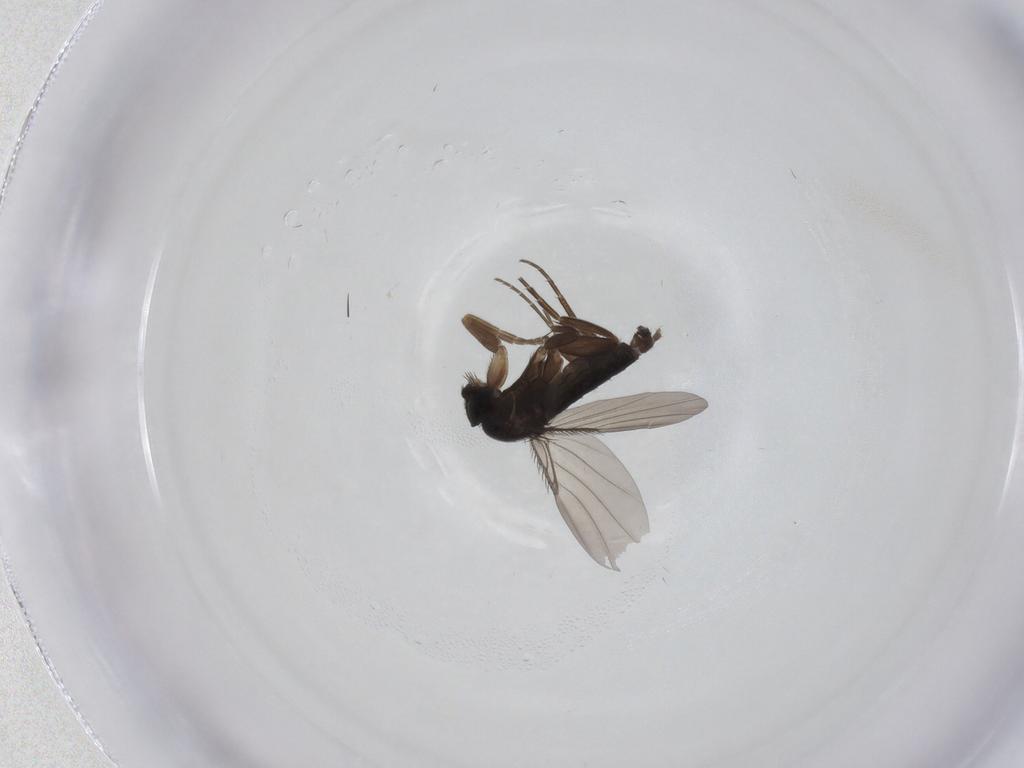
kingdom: Animalia
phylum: Arthropoda
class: Insecta
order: Diptera
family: Phoridae
